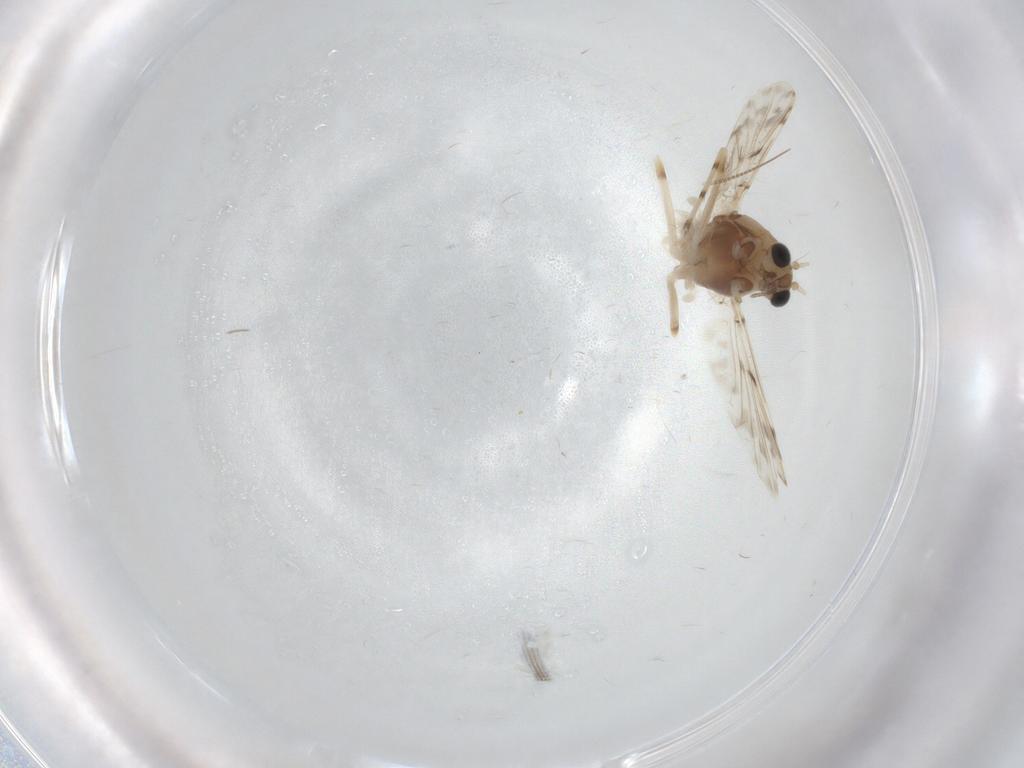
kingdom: Animalia
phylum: Arthropoda
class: Insecta
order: Diptera
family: Chironomidae
